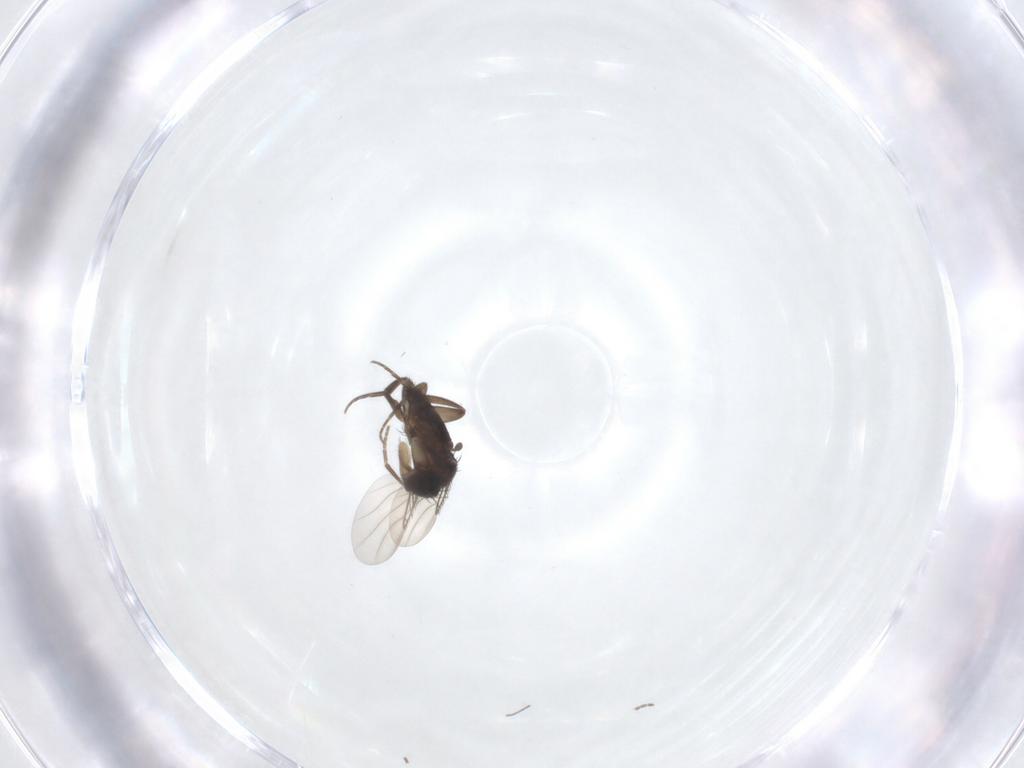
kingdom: Animalia
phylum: Arthropoda
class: Insecta
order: Diptera
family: Phoridae
